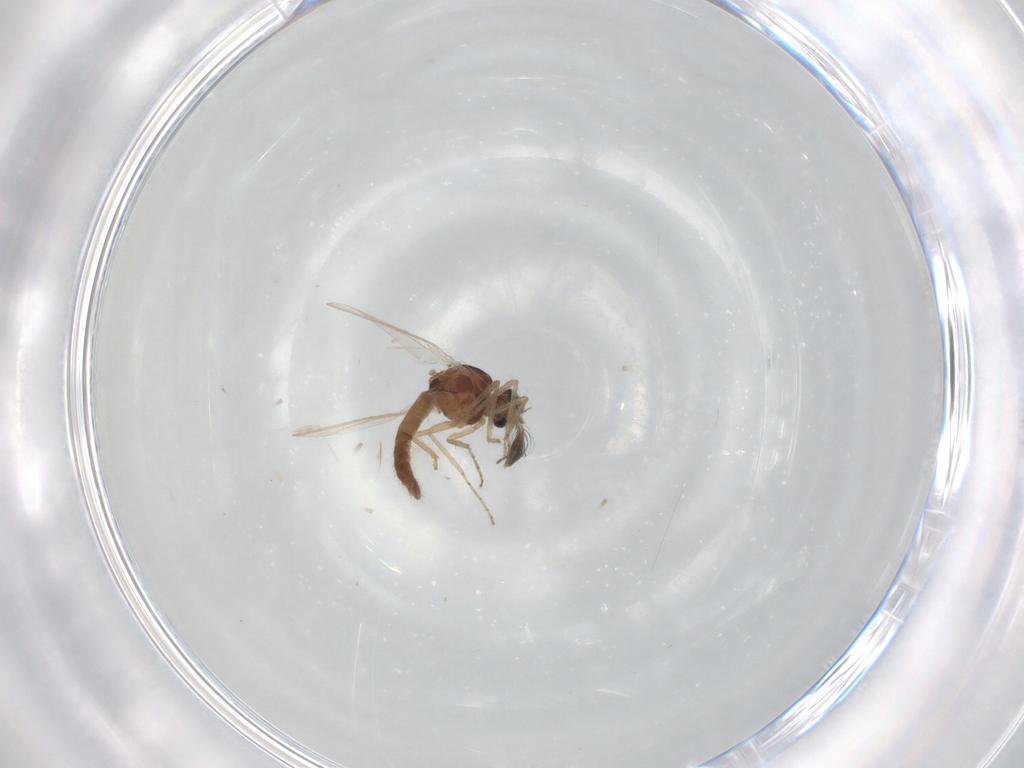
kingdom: Animalia
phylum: Arthropoda
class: Insecta
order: Diptera
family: Ceratopogonidae
